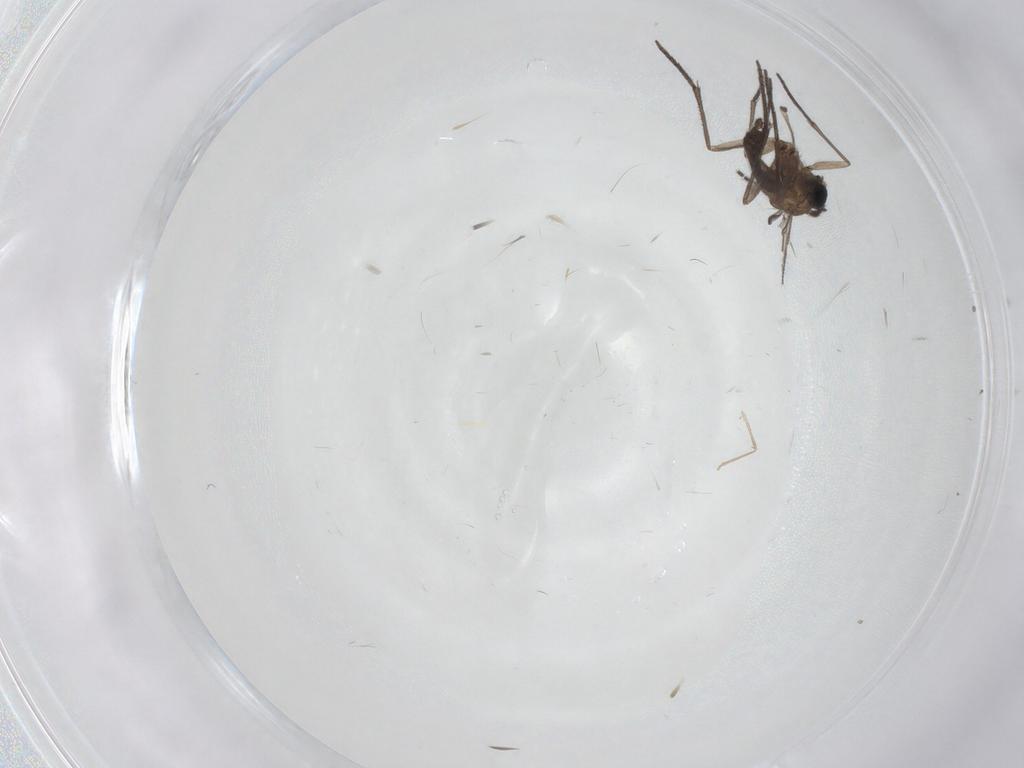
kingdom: Animalia
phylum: Arthropoda
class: Insecta
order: Diptera
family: Sciaridae
